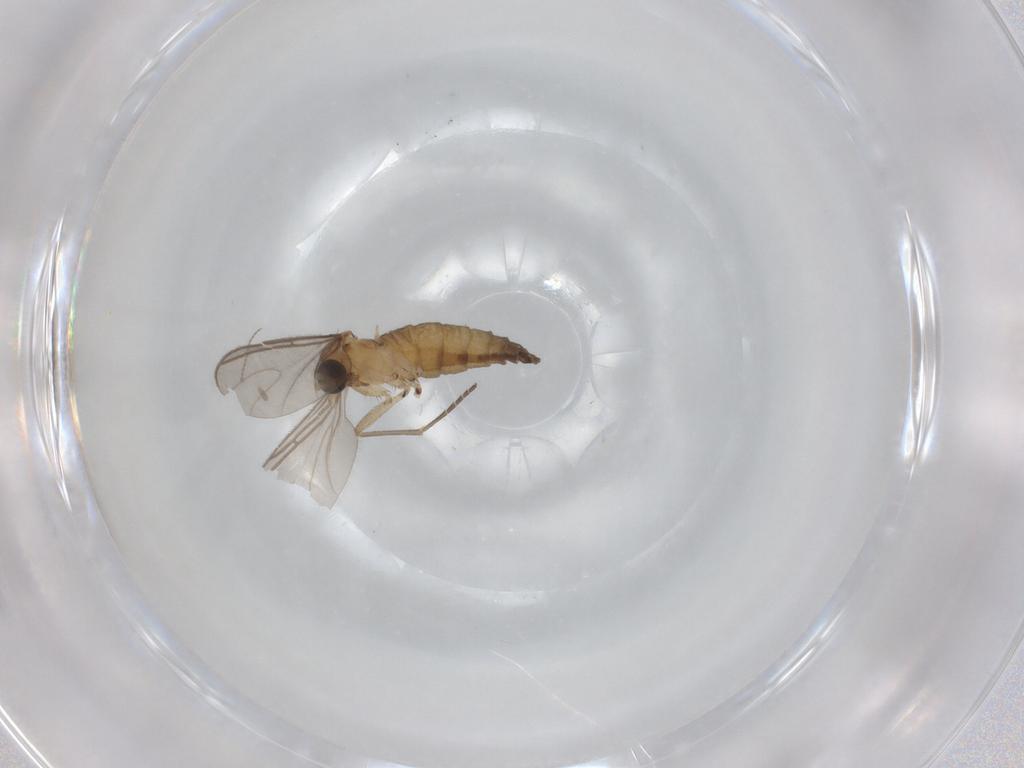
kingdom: Animalia
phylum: Arthropoda
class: Insecta
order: Diptera
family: Sciaridae
